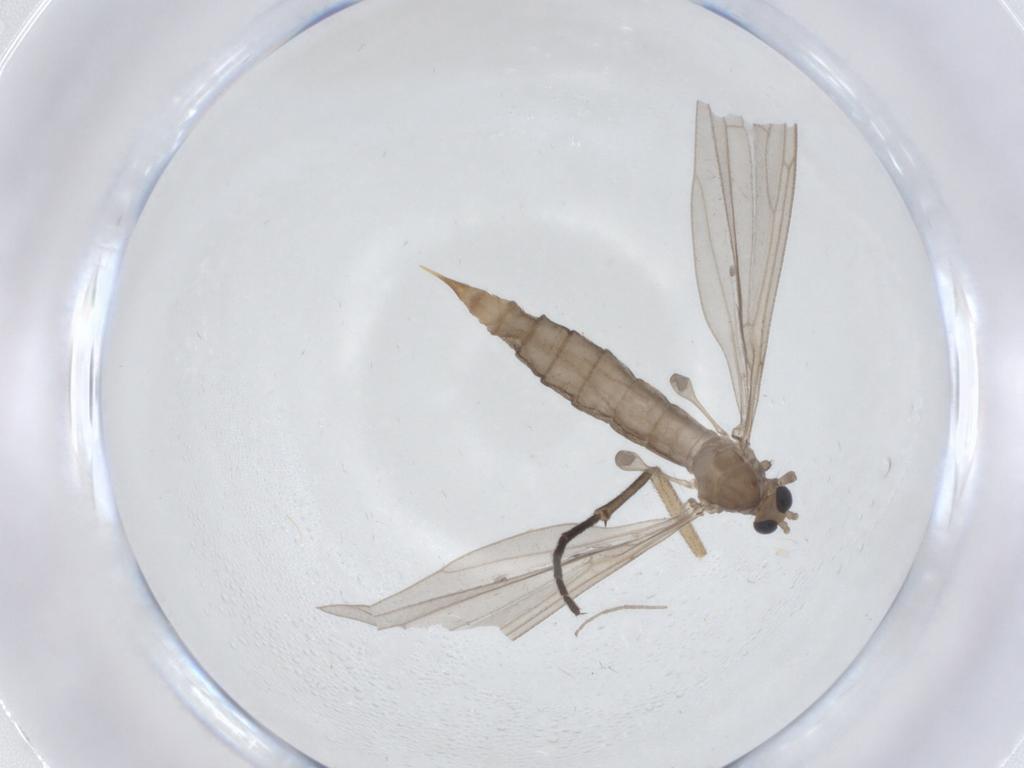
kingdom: Animalia
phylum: Arthropoda
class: Insecta
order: Diptera
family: Limoniidae
